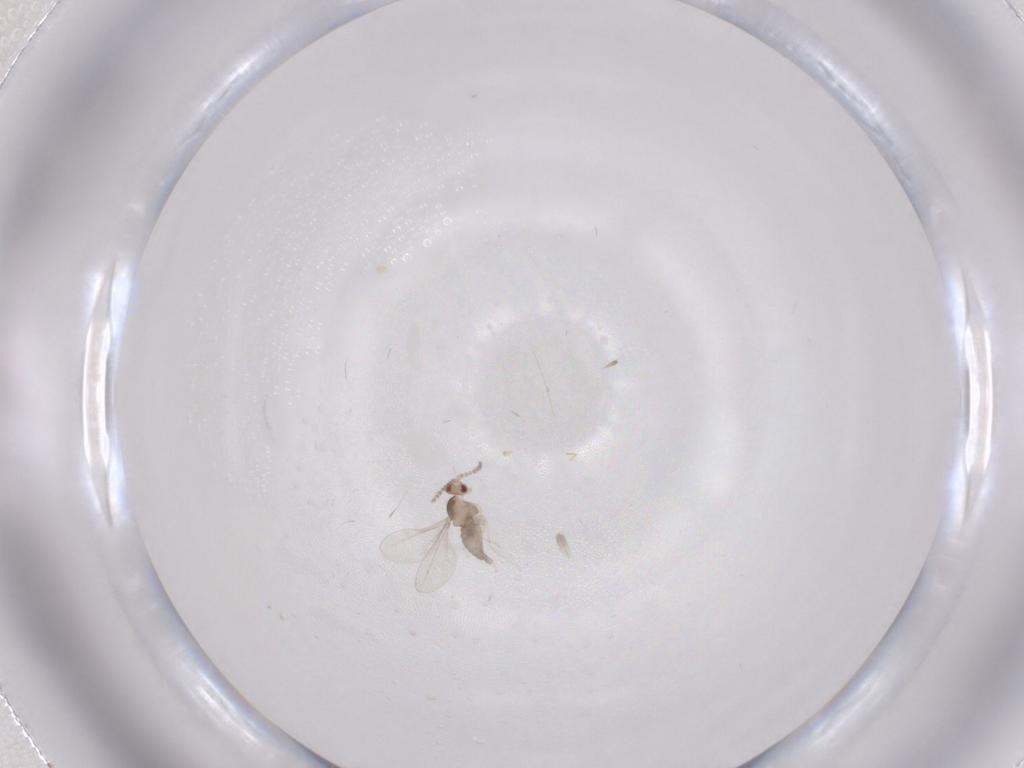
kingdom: Animalia
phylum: Arthropoda
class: Insecta
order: Diptera
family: Cecidomyiidae
